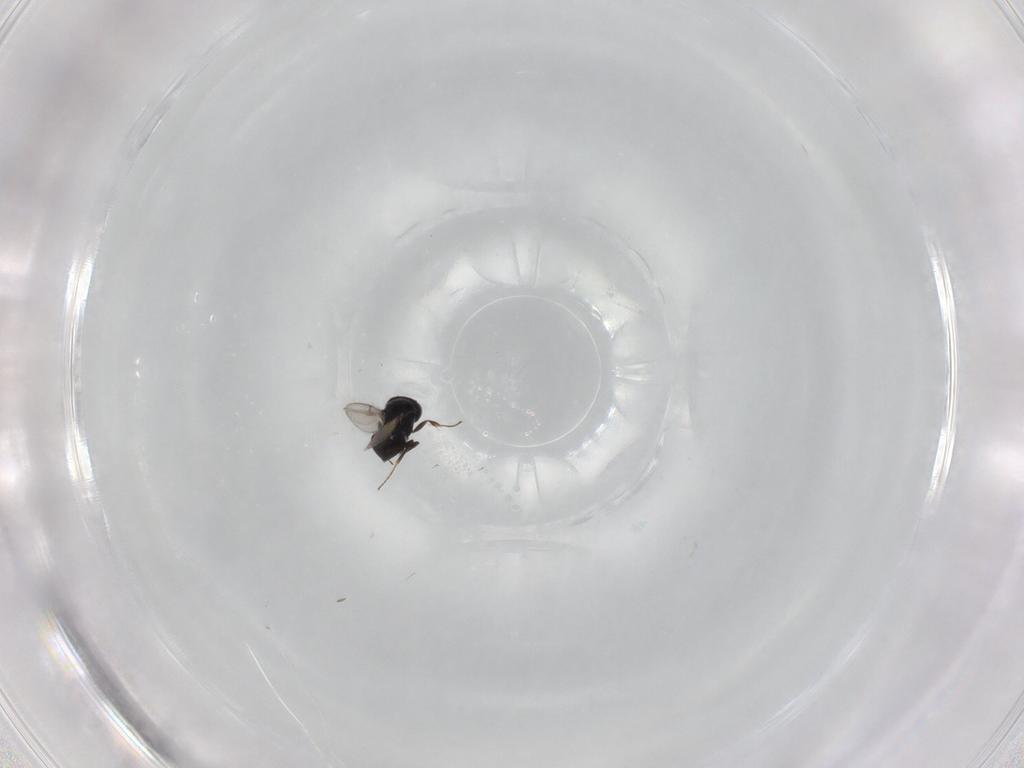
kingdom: Animalia
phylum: Arthropoda
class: Insecta
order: Hymenoptera
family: Scelionidae
